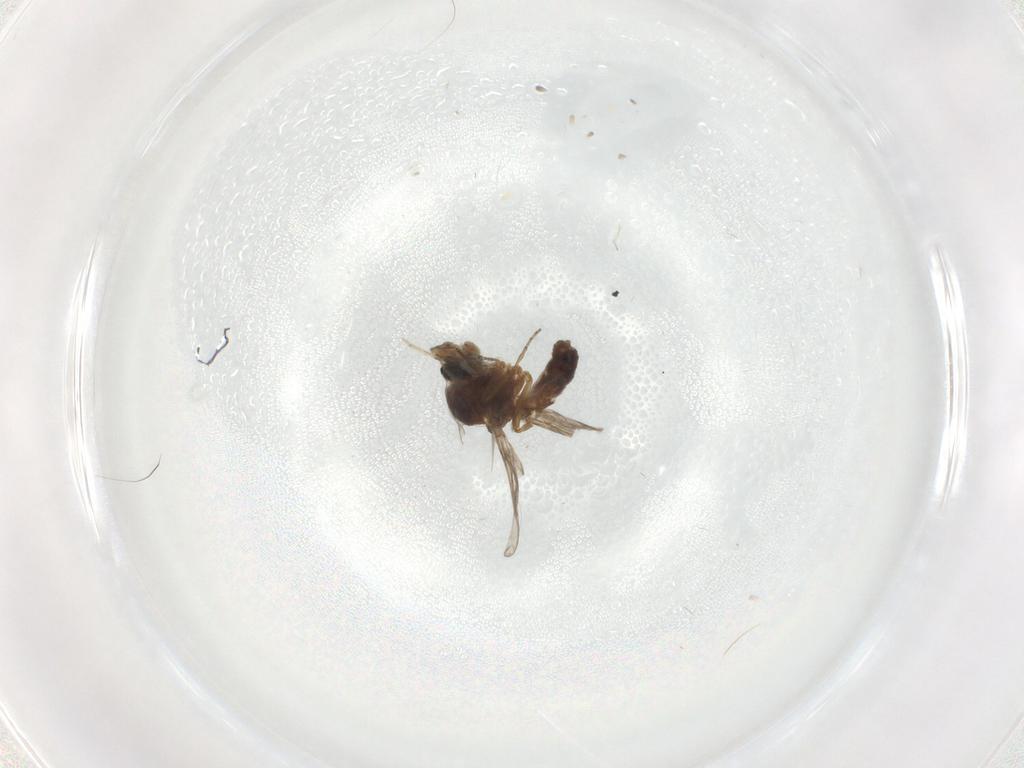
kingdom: Animalia
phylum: Arthropoda
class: Insecta
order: Diptera
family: Cecidomyiidae
